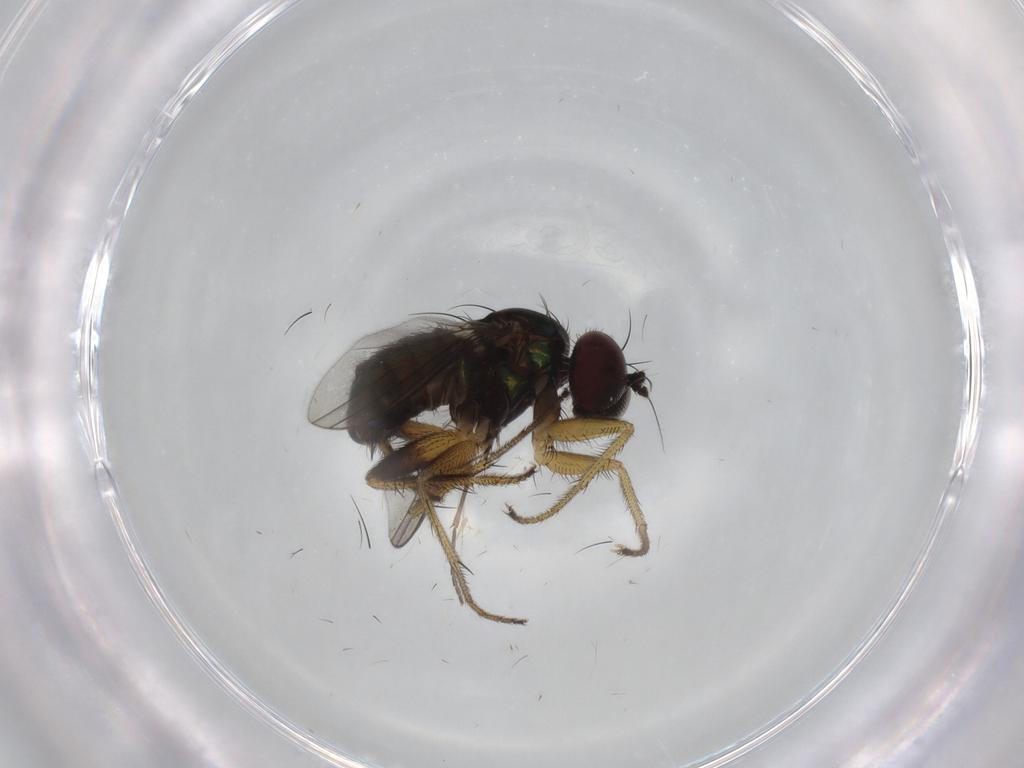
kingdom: Animalia
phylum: Arthropoda
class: Insecta
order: Diptera
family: Dolichopodidae
